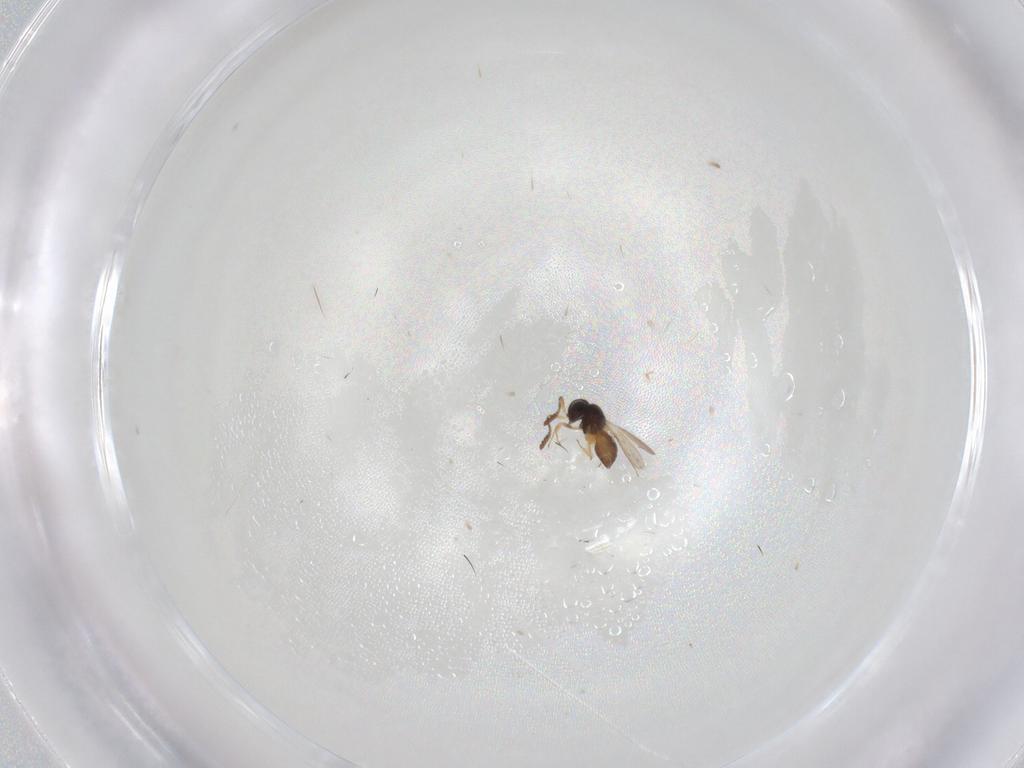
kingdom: Animalia
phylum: Arthropoda
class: Insecta
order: Hymenoptera
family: Scelionidae
